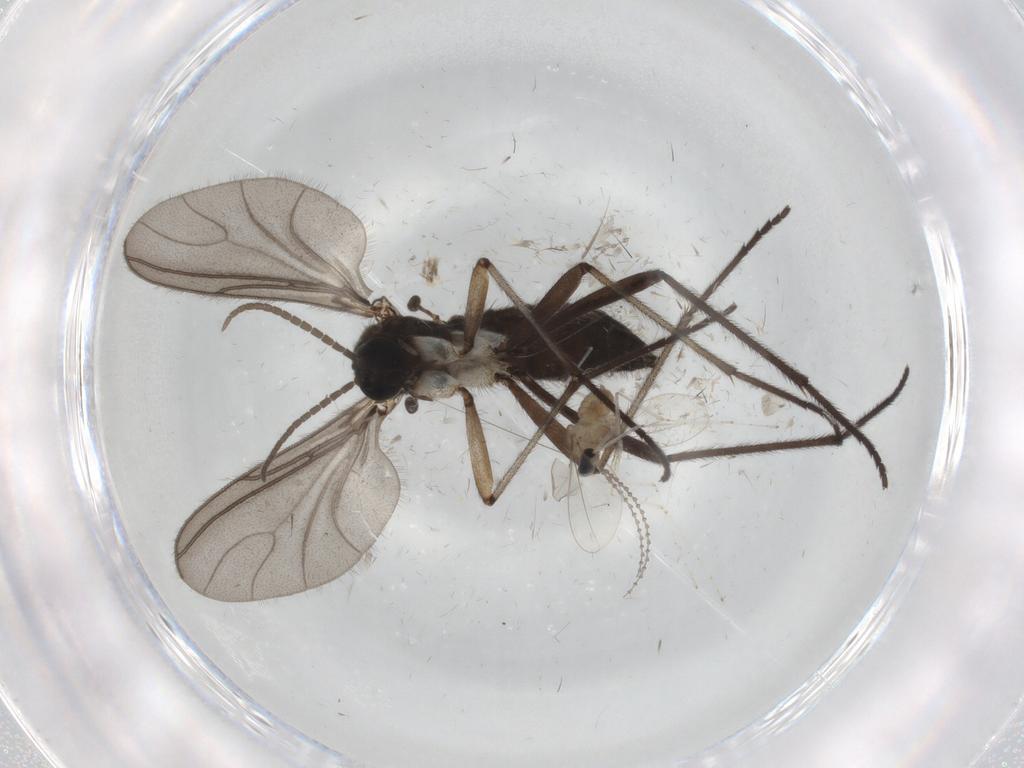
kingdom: Animalia
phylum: Arthropoda
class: Insecta
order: Diptera
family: Sciaridae
